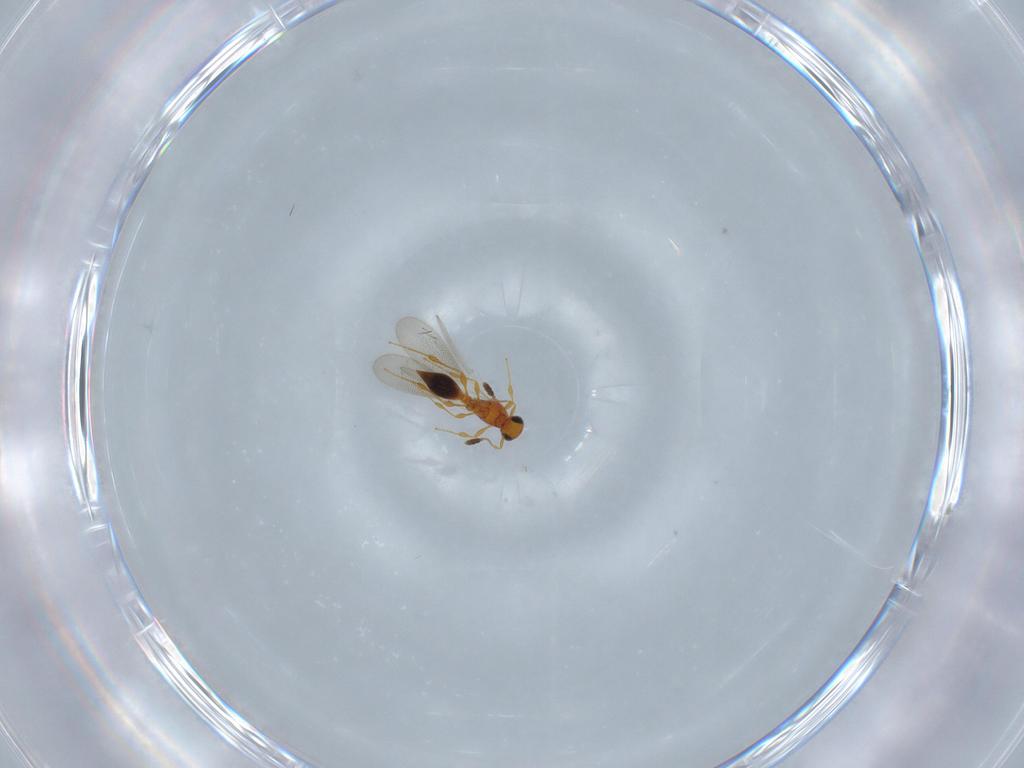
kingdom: Animalia
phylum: Arthropoda
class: Insecta
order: Hymenoptera
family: Platygastridae
